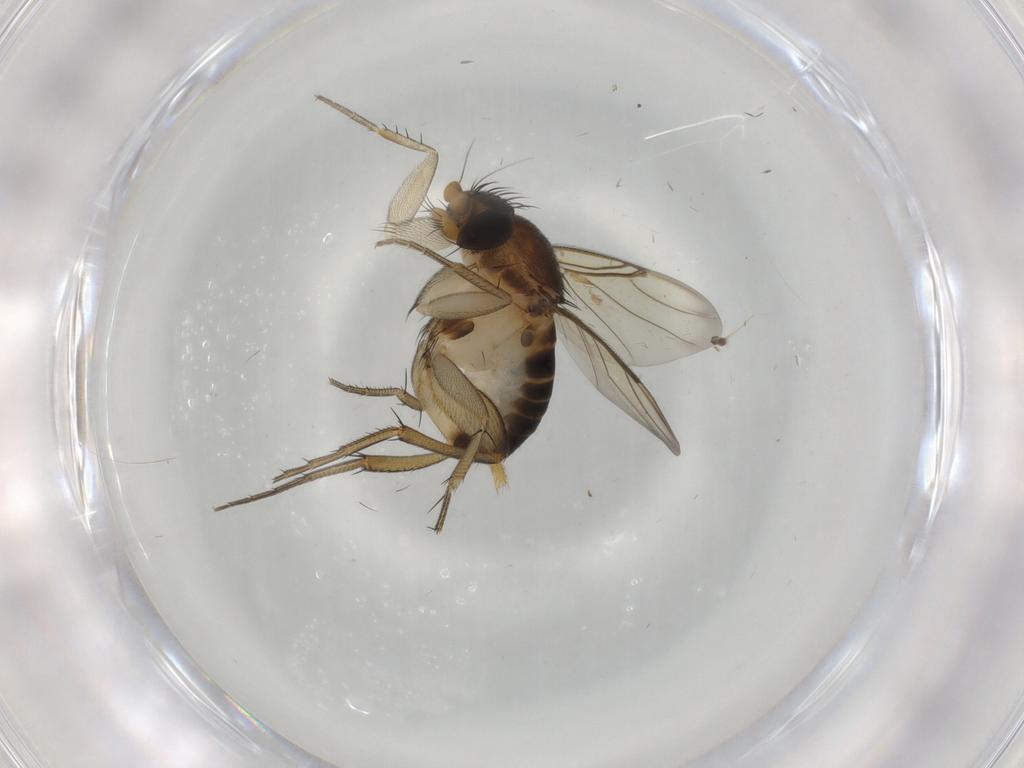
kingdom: Animalia
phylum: Arthropoda
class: Insecta
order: Diptera
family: Phoridae
